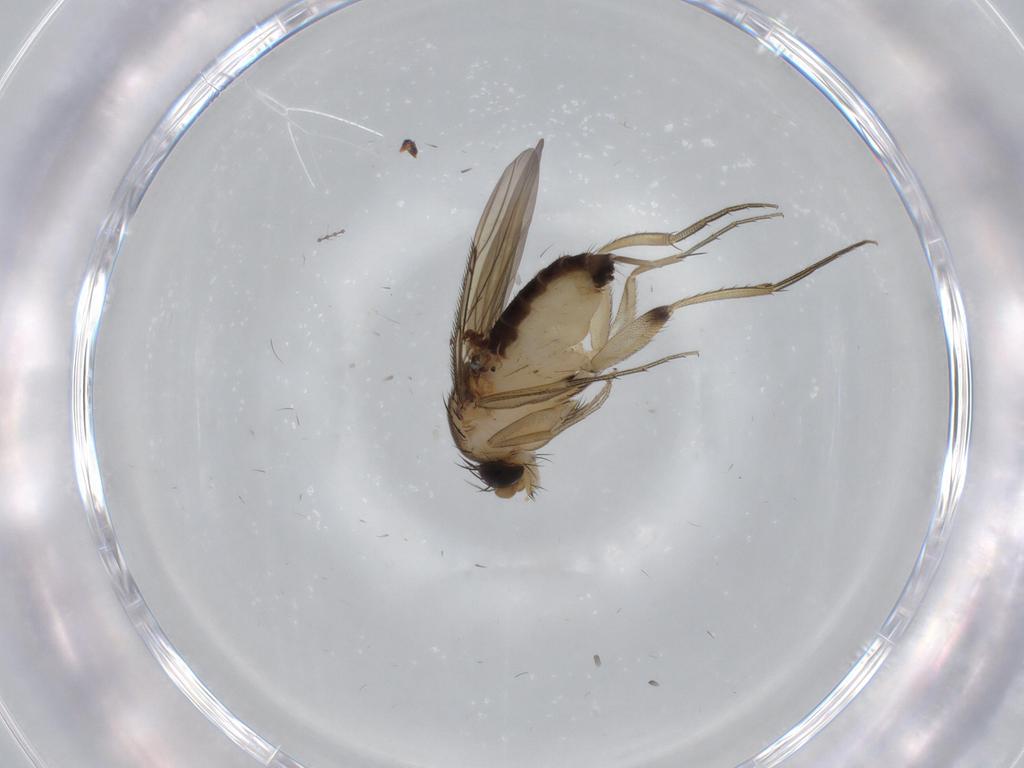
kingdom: Animalia
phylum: Arthropoda
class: Insecta
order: Diptera
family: Phoridae
